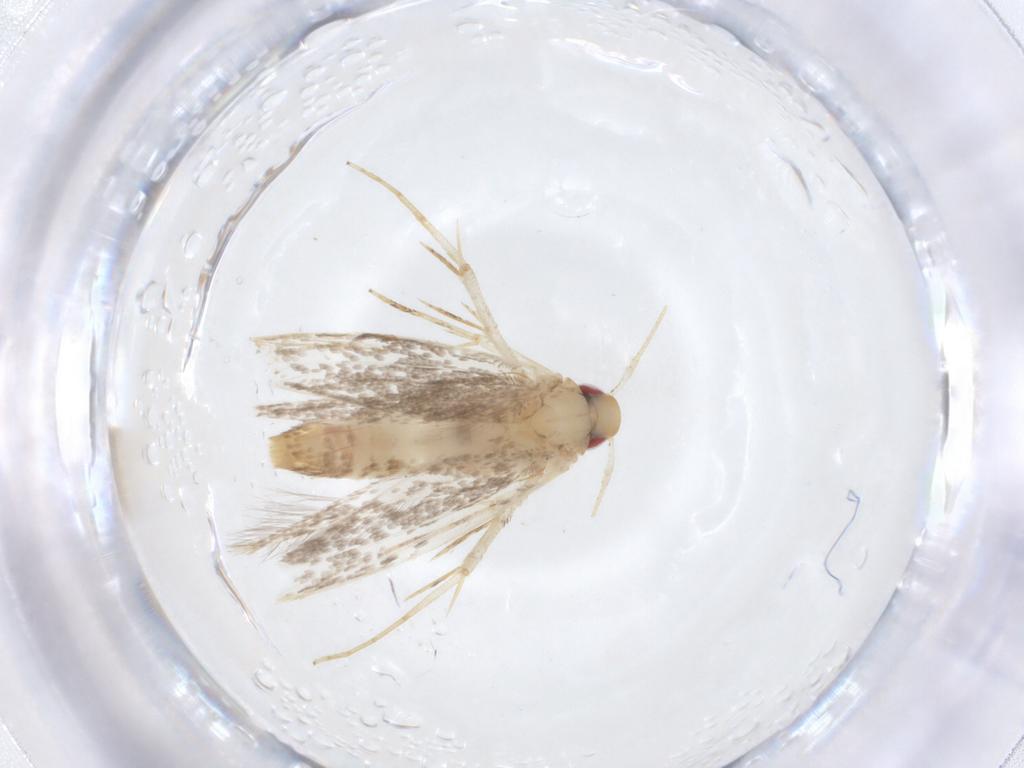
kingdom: Animalia
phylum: Arthropoda
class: Insecta
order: Lepidoptera
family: Cosmopterigidae
